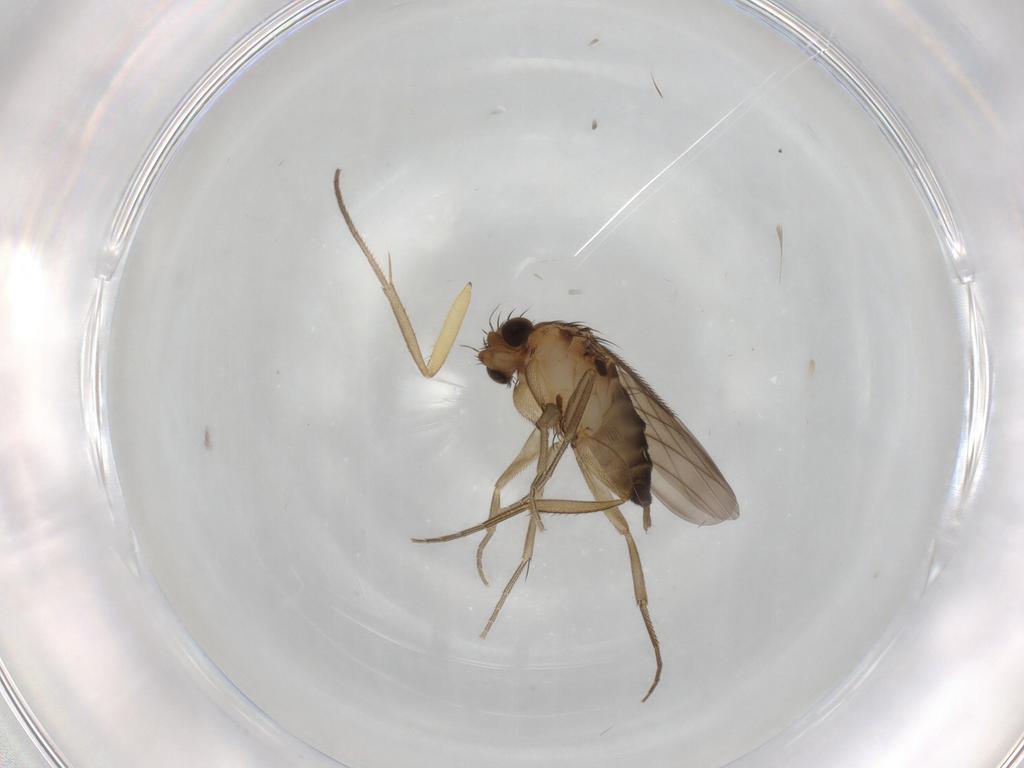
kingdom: Animalia
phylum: Arthropoda
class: Insecta
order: Diptera
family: Phoridae
